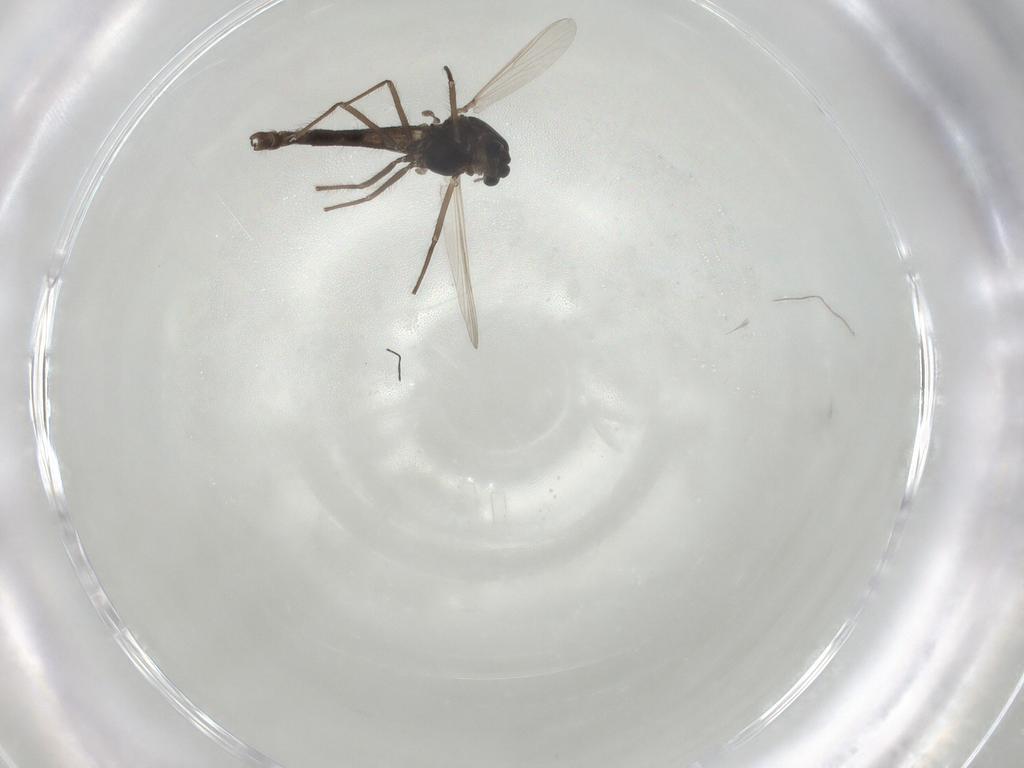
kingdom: Animalia
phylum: Arthropoda
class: Insecta
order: Diptera
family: Chironomidae
